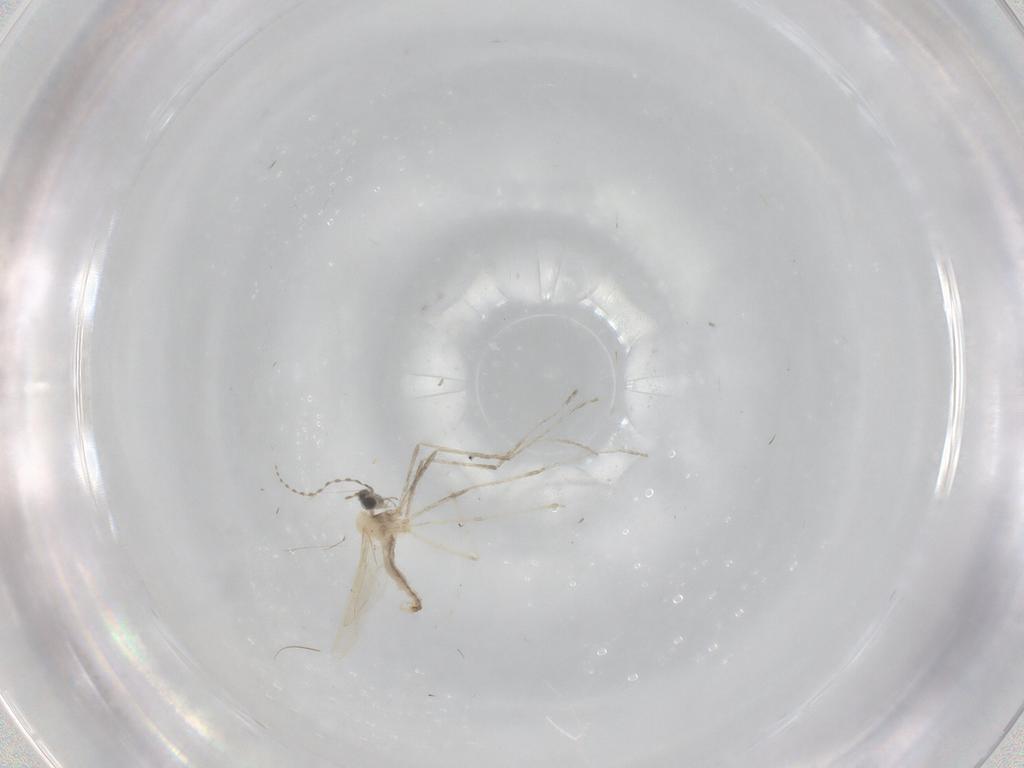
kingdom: Animalia
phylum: Arthropoda
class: Insecta
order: Diptera
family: Cecidomyiidae
